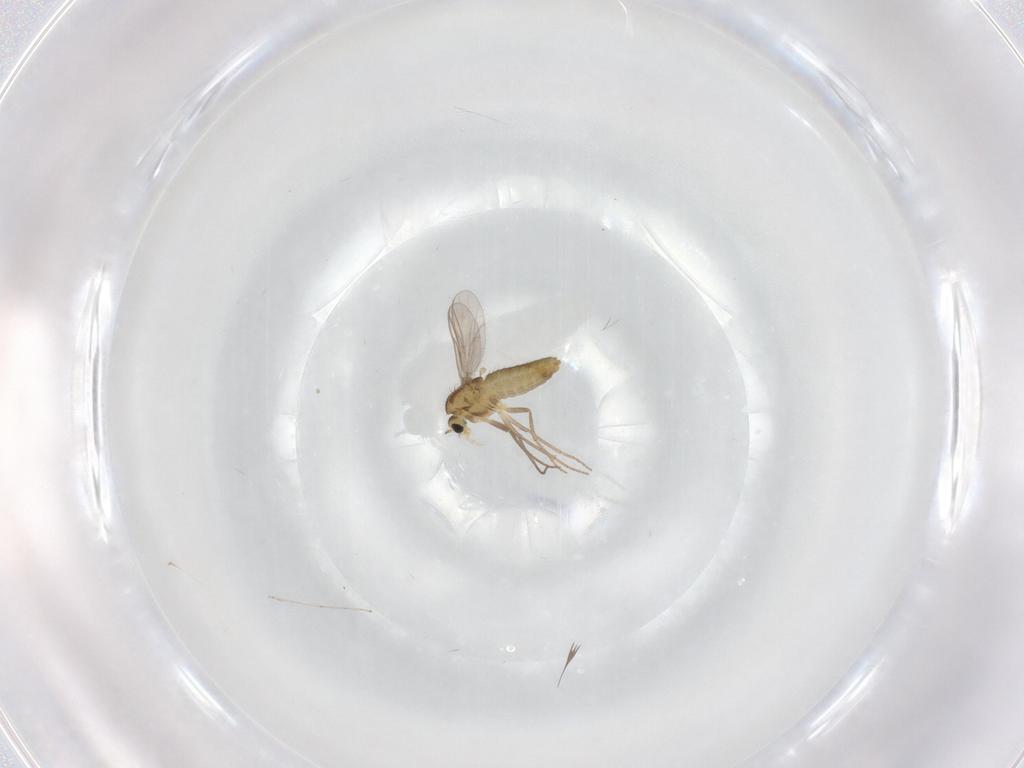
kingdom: Animalia
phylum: Arthropoda
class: Insecta
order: Diptera
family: Chironomidae
